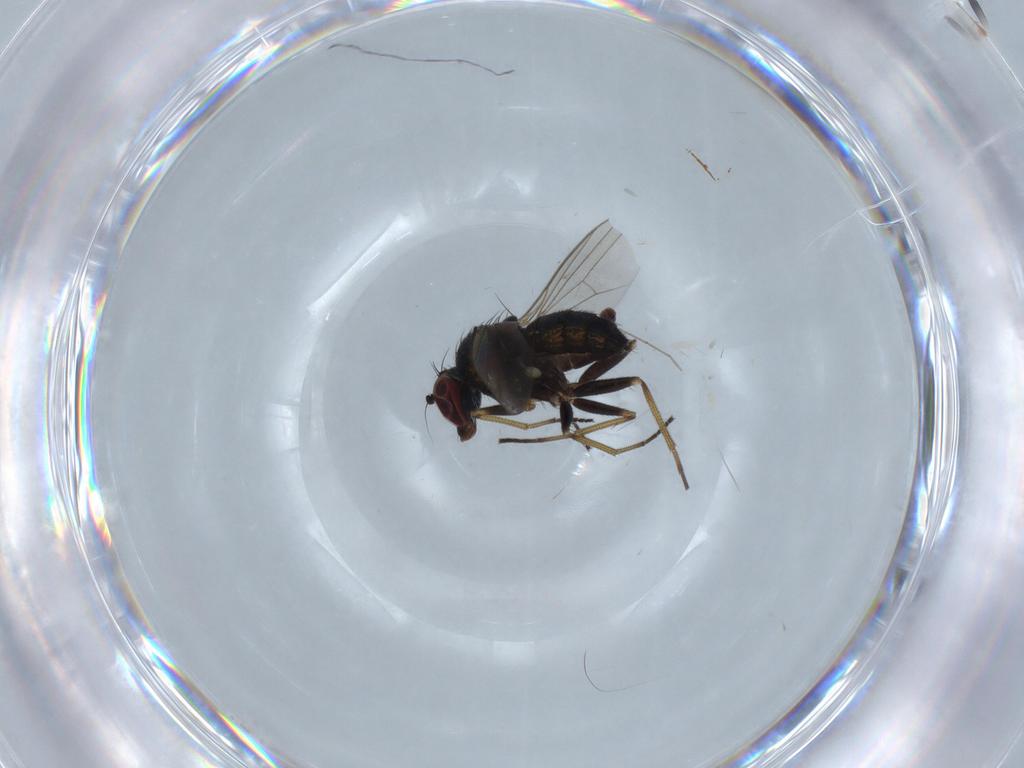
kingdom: Animalia
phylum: Arthropoda
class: Insecta
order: Diptera
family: Dolichopodidae
